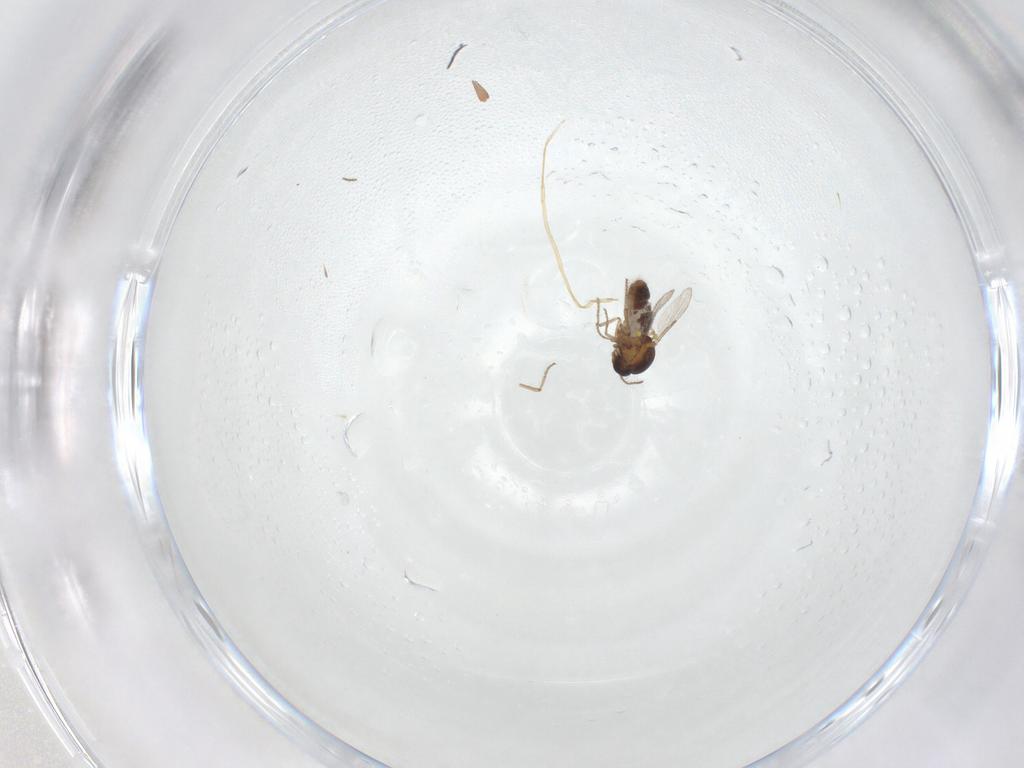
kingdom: Animalia
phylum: Arthropoda
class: Insecta
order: Diptera
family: Ceratopogonidae
